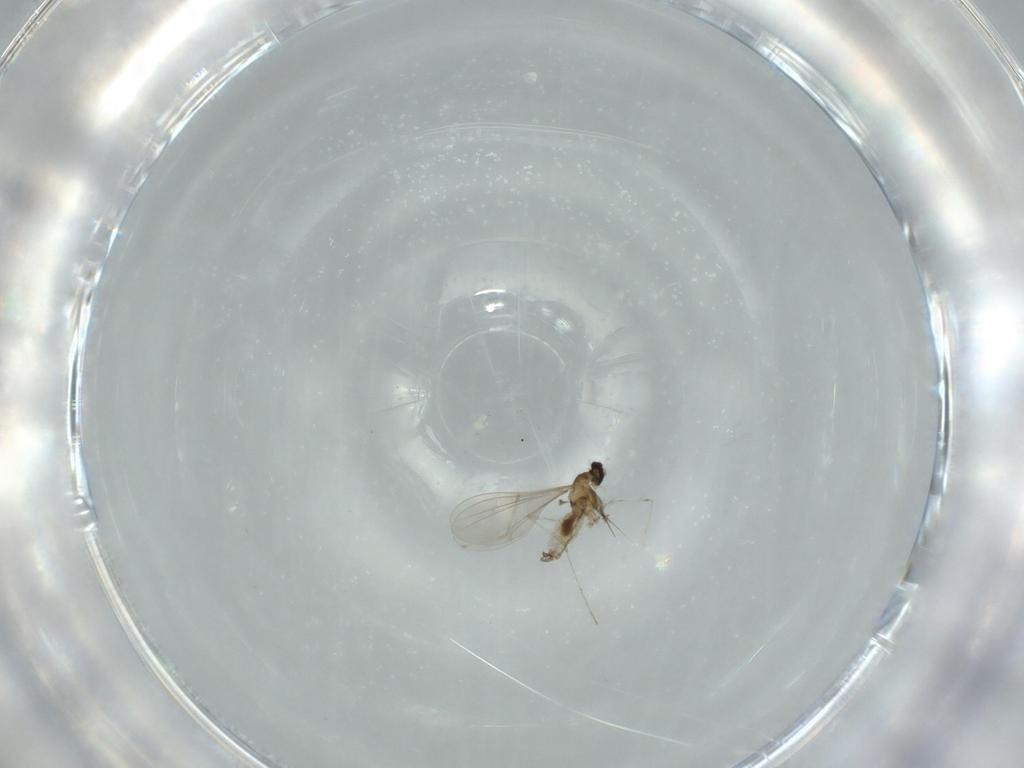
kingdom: Animalia
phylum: Arthropoda
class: Insecta
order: Diptera
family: Cecidomyiidae
